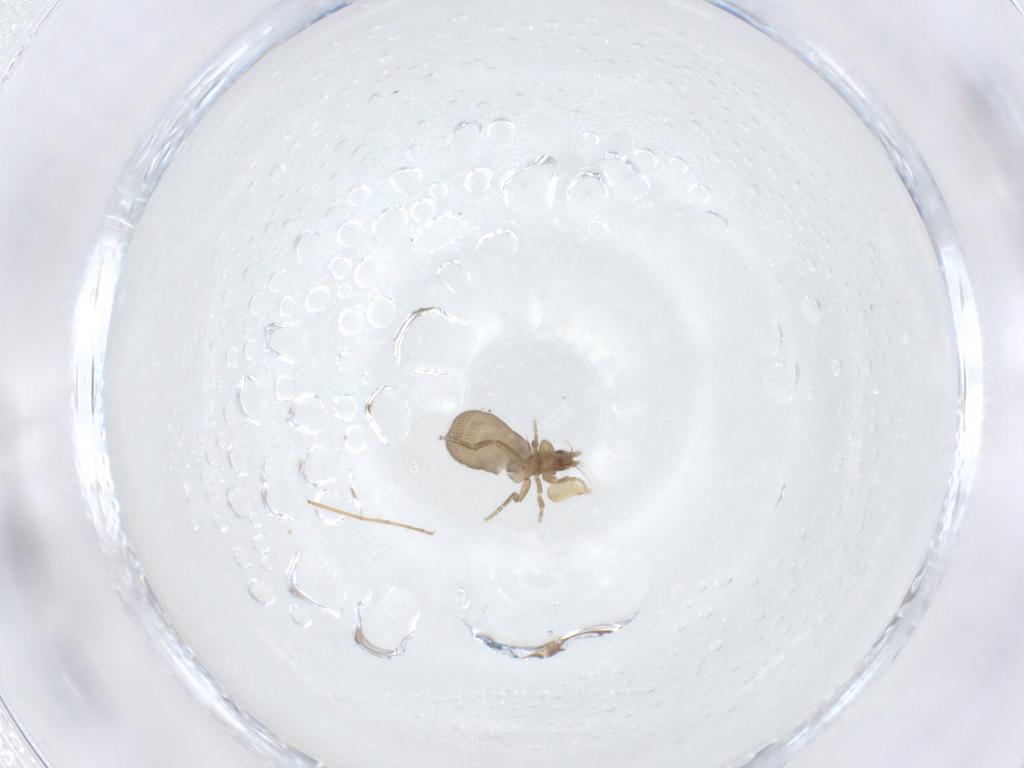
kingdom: Animalia
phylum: Arthropoda
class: Insecta
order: Diptera
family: Dolichopodidae
